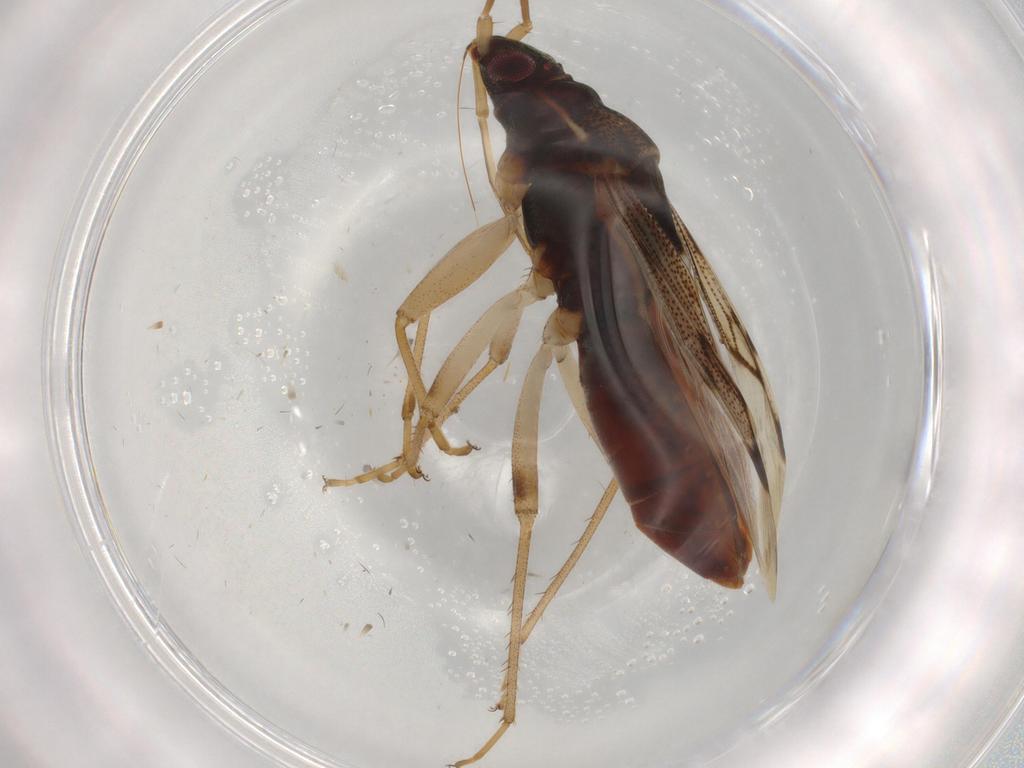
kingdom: Animalia
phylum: Arthropoda
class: Insecta
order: Hemiptera
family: Rhyparochromidae
